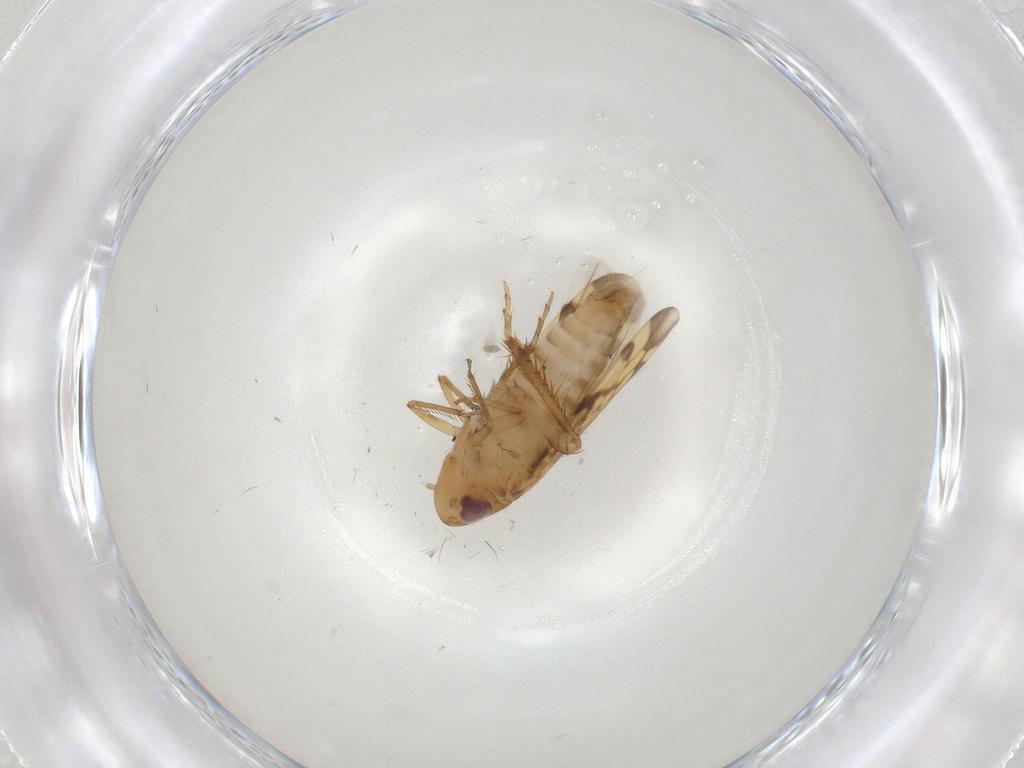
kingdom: Animalia
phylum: Arthropoda
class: Insecta
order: Hemiptera
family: Cicadellidae
